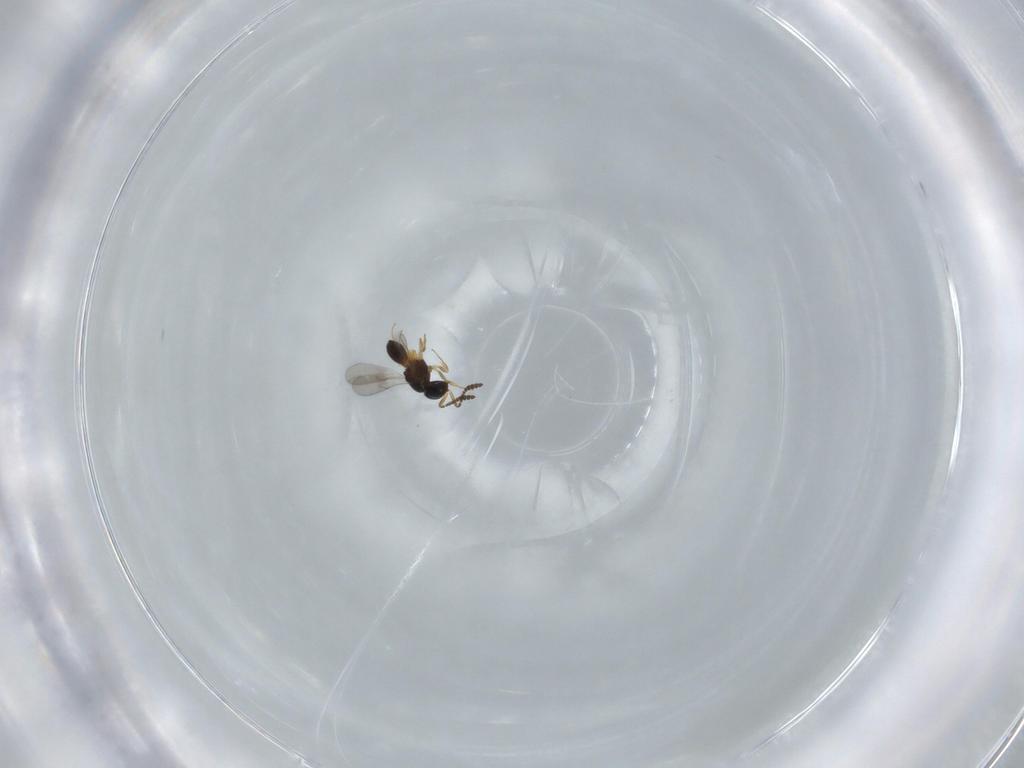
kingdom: Animalia
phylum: Arthropoda
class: Insecta
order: Hymenoptera
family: Scelionidae
